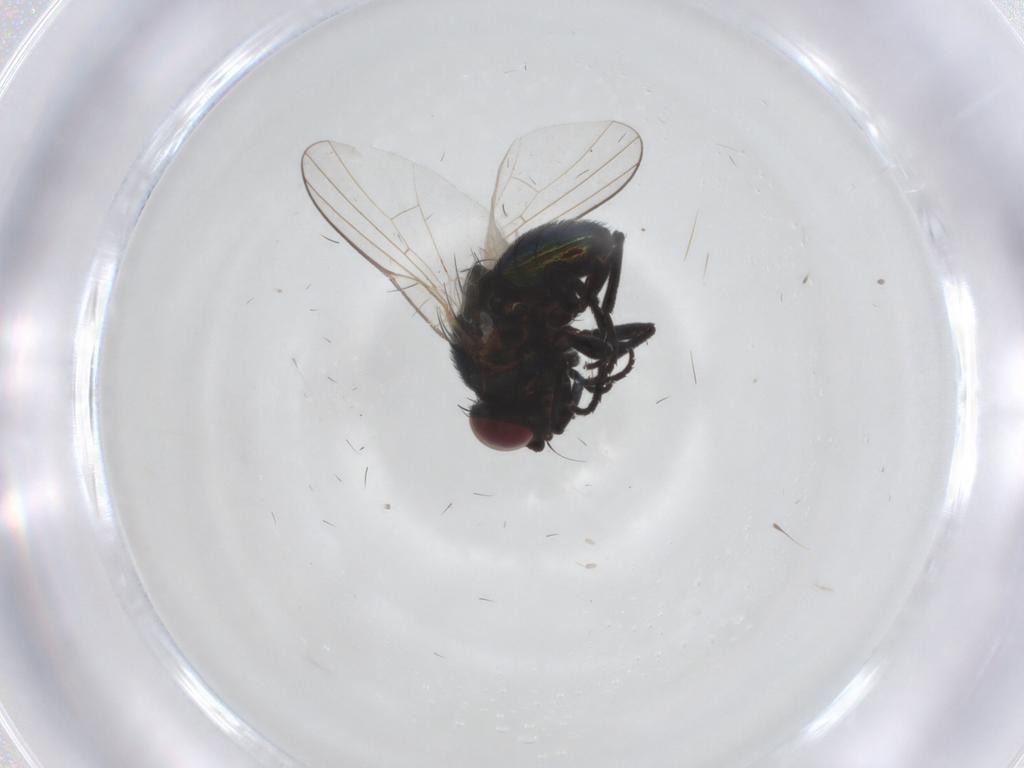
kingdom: Animalia
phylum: Arthropoda
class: Insecta
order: Diptera
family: Agromyzidae
